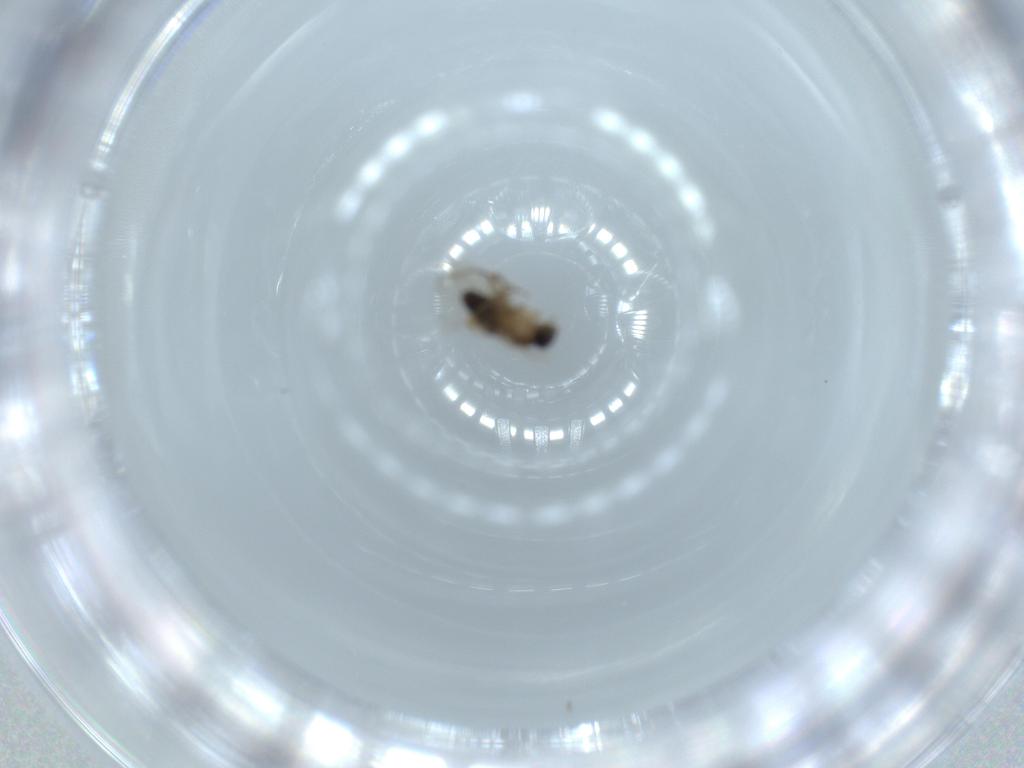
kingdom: Animalia
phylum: Arthropoda
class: Insecta
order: Diptera
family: Phoridae
